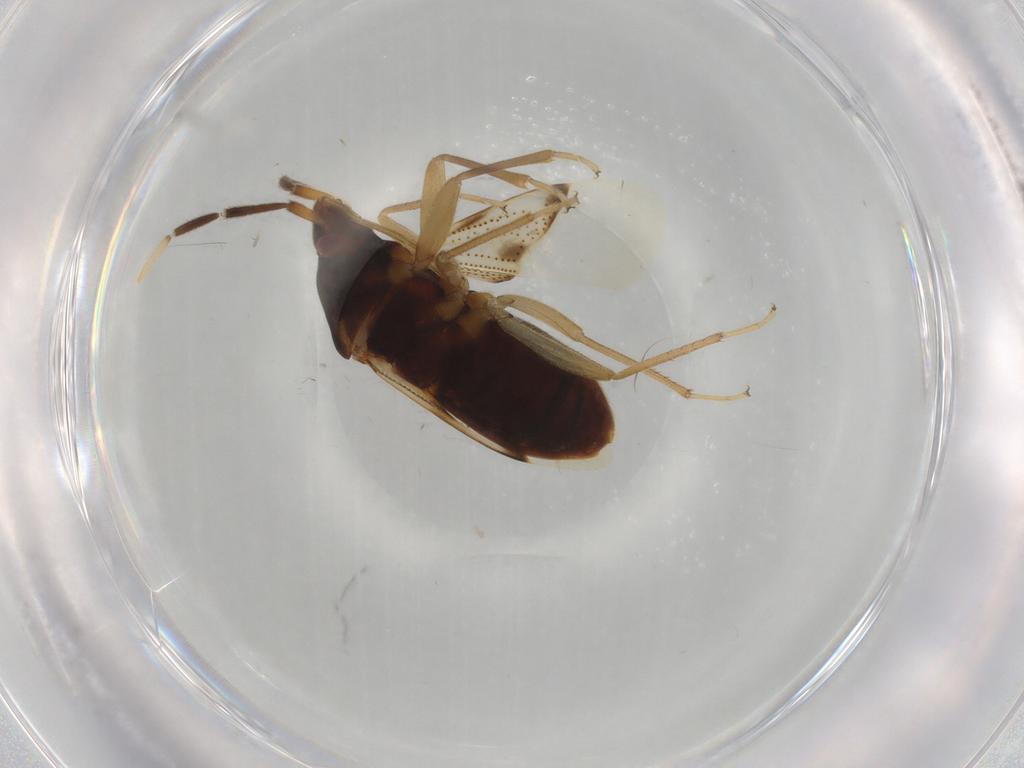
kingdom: Animalia
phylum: Arthropoda
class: Insecta
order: Hemiptera
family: Rhyparochromidae
